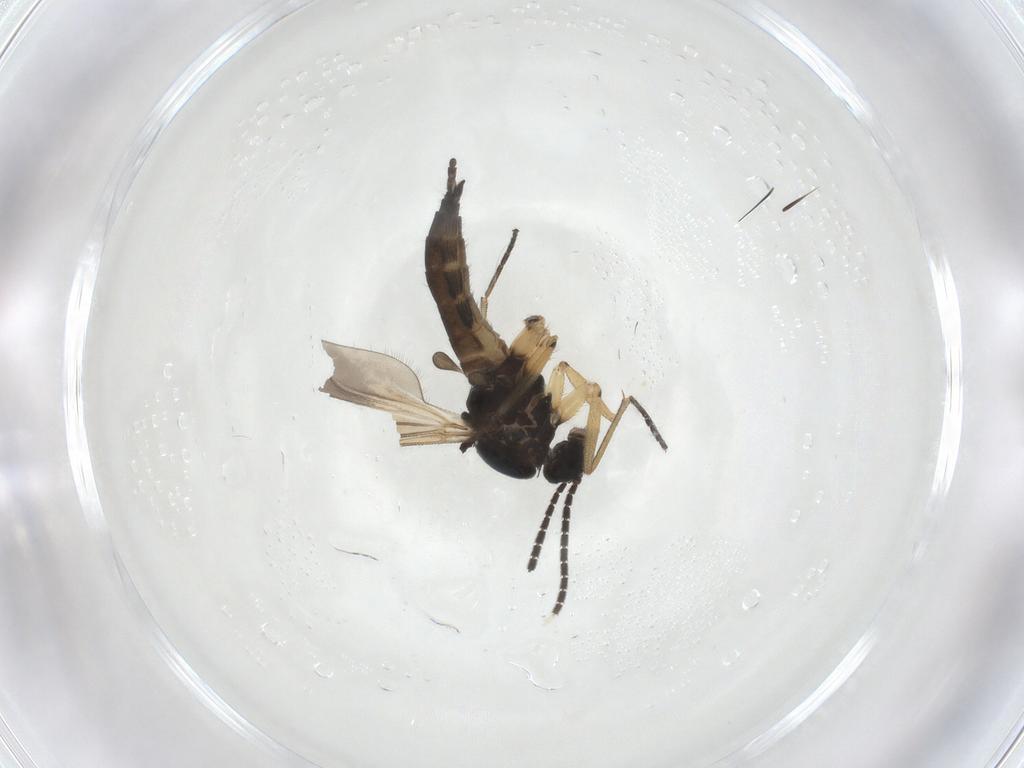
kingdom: Animalia
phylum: Arthropoda
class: Insecta
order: Diptera
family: Sciaridae
